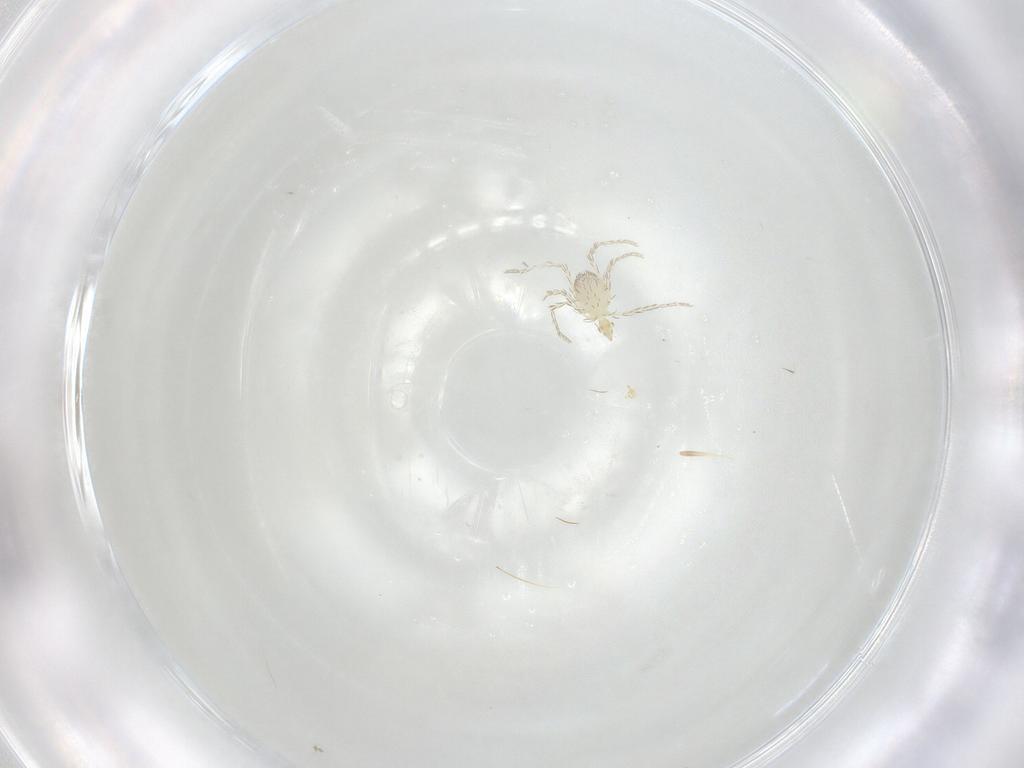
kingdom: Animalia
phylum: Arthropoda
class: Arachnida
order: Trombidiformes
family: Erythraeidae
